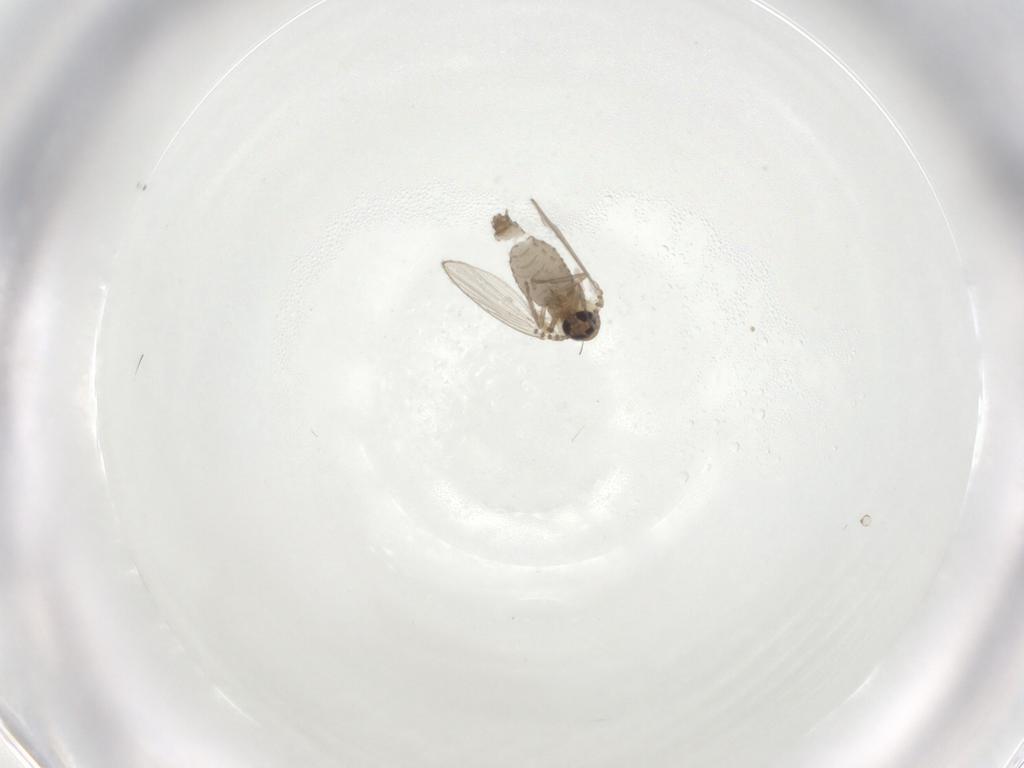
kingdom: Animalia
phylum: Arthropoda
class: Insecta
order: Diptera
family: Psychodidae
